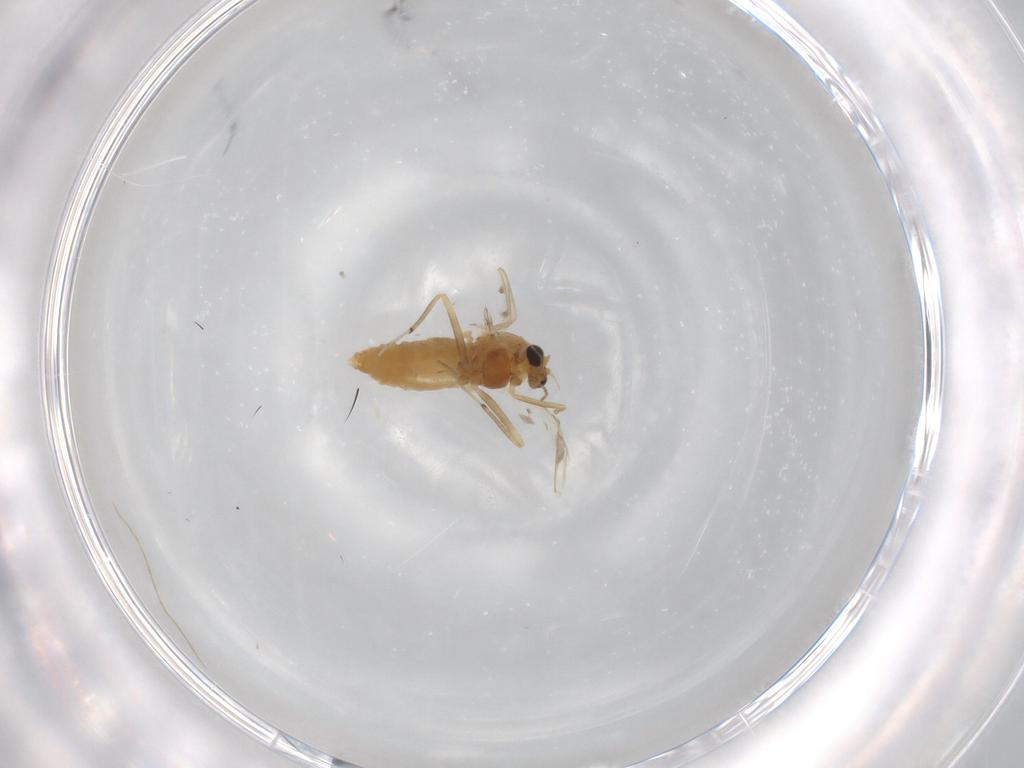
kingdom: Animalia
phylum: Arthropoda
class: Insecta
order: Diptera
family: Chironomidae
